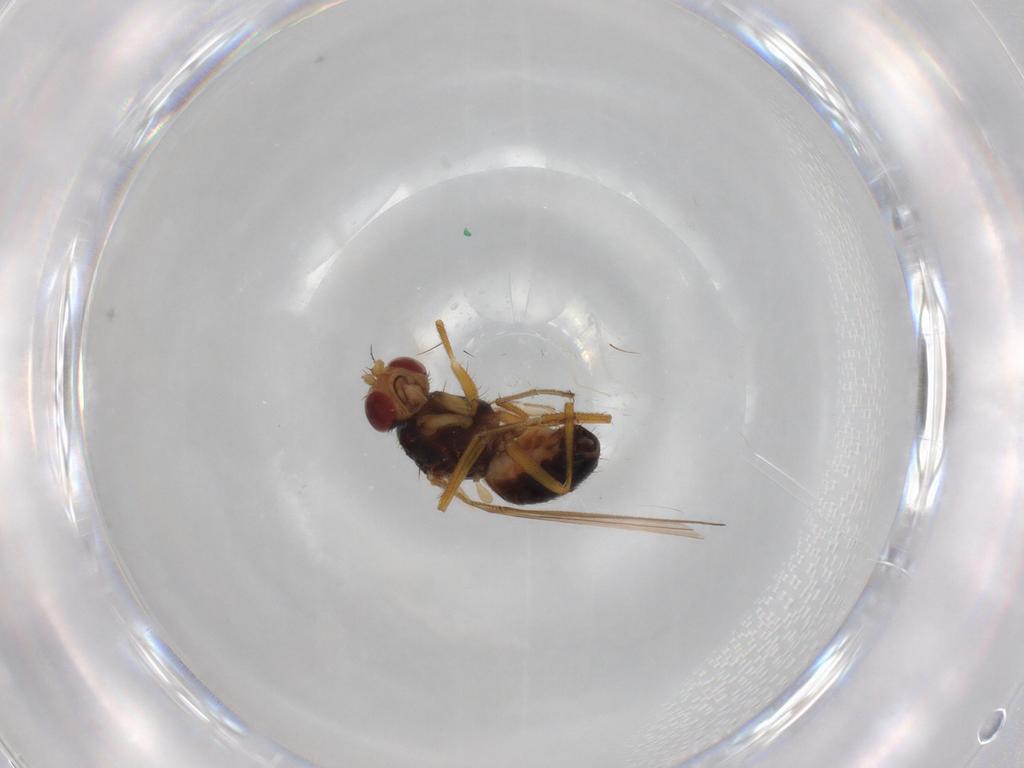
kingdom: Animalia
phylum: Arthropoda
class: Insecta
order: Diptera
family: Drosophilidae
